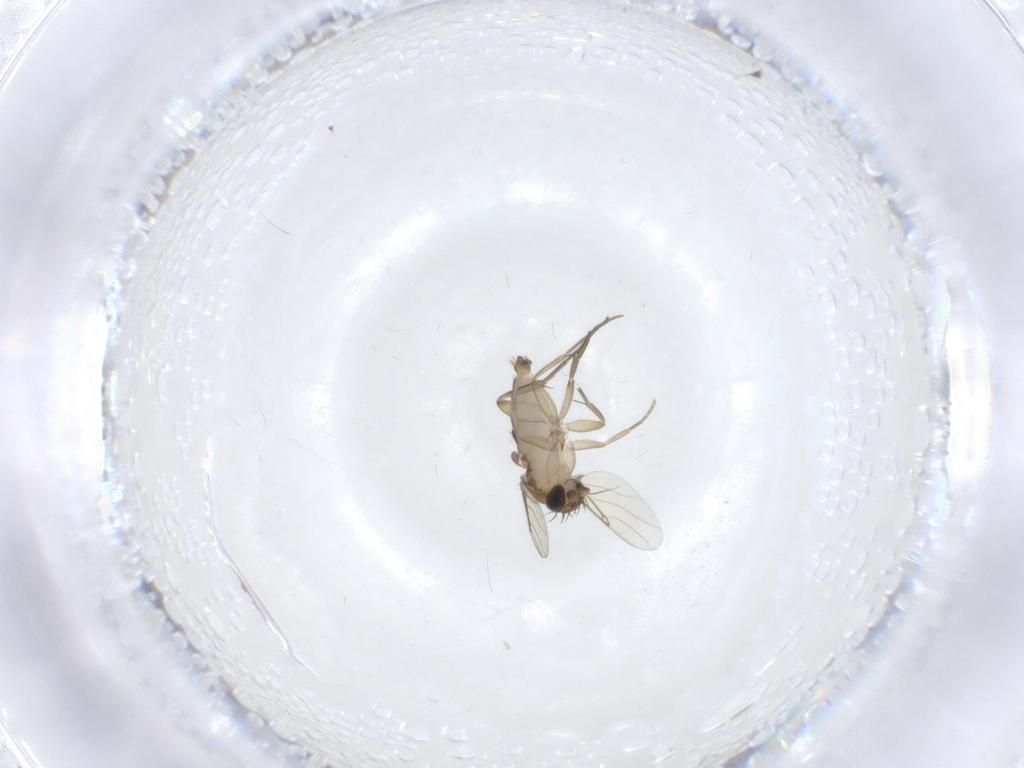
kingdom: Animalia
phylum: Arthropoda
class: Insecta
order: Diptera
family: Phoridae
